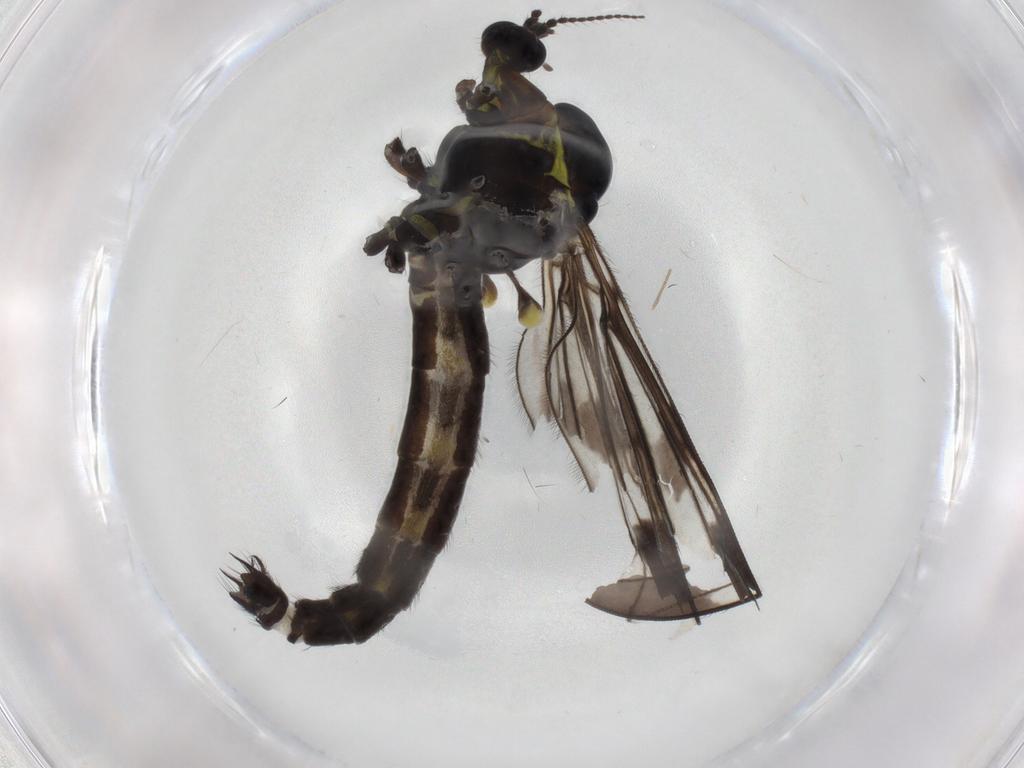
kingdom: Animalia
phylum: Arthropoda
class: Insecta
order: Diptera
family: Limoniidae
